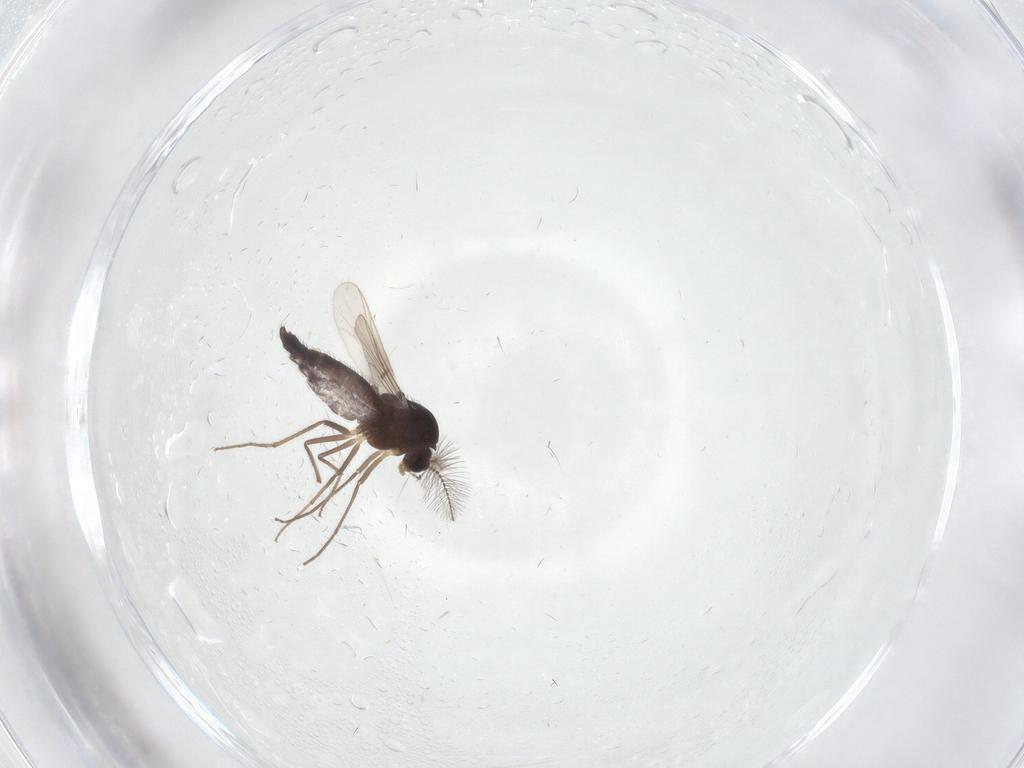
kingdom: Animalia
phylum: Arthropoda
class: Insecta
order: Diptera
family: Chironomidae
